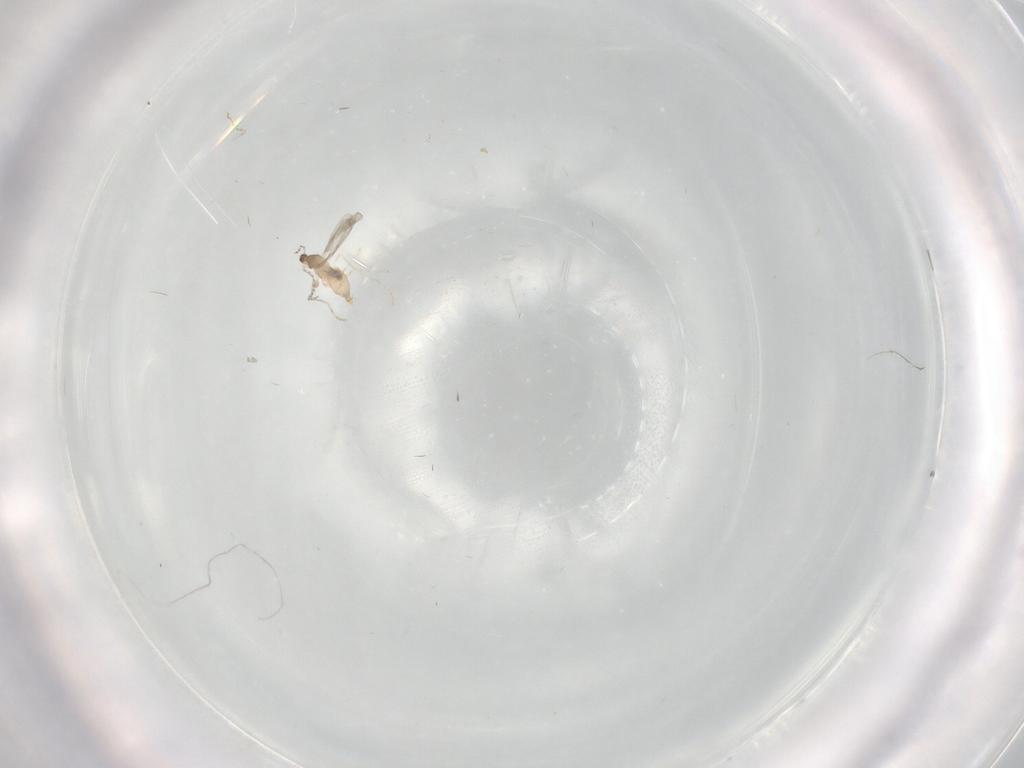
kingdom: Animalia
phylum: Arthropoda
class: Insecta
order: Diptera
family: Cecidomyiidae
